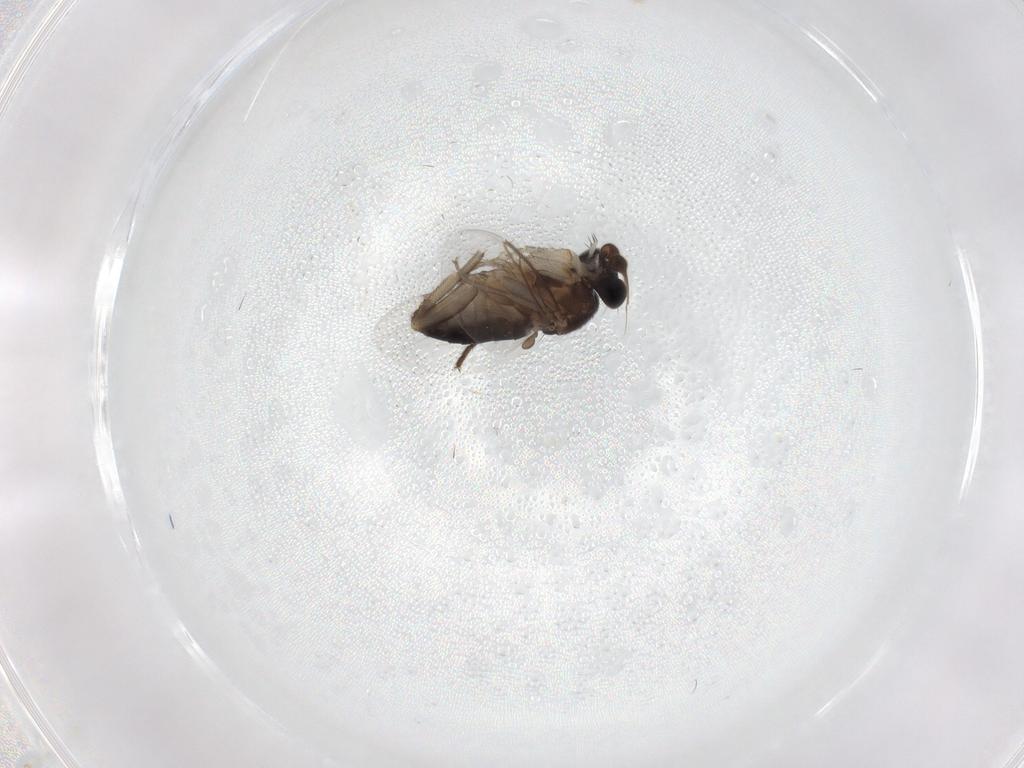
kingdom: Animalia
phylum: Arthropoda
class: Insecta
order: Diptera
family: Phoridae
